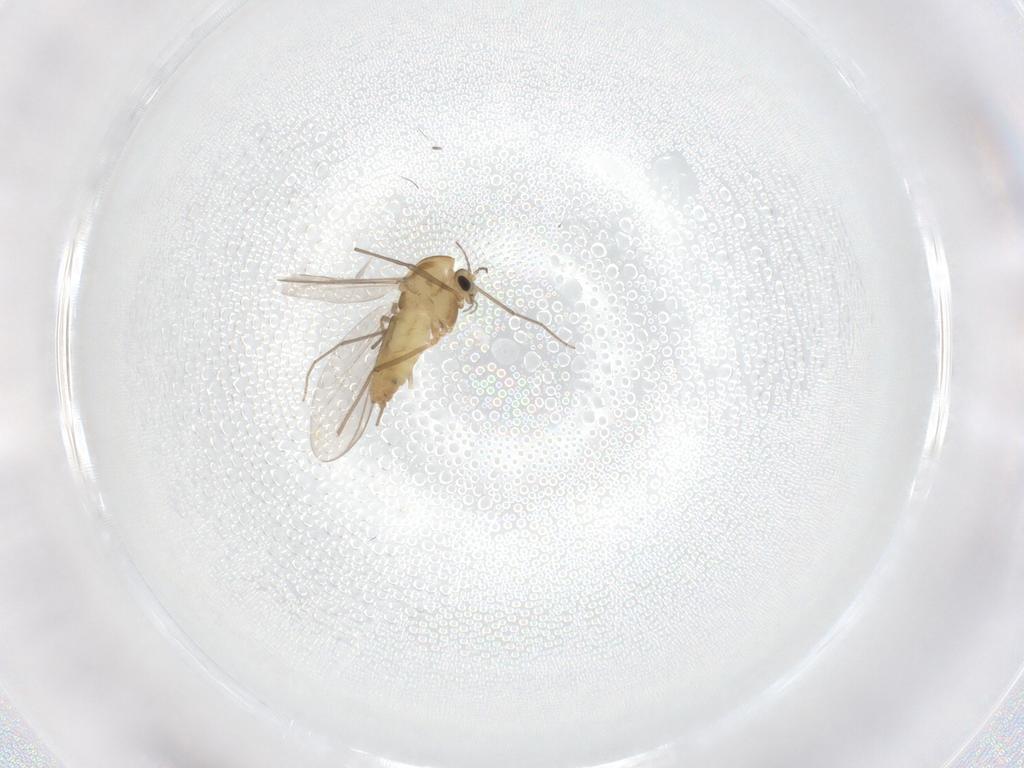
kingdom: Animalia
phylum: Arthropoda
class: Insecta
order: Diptera
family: Chironomidae
